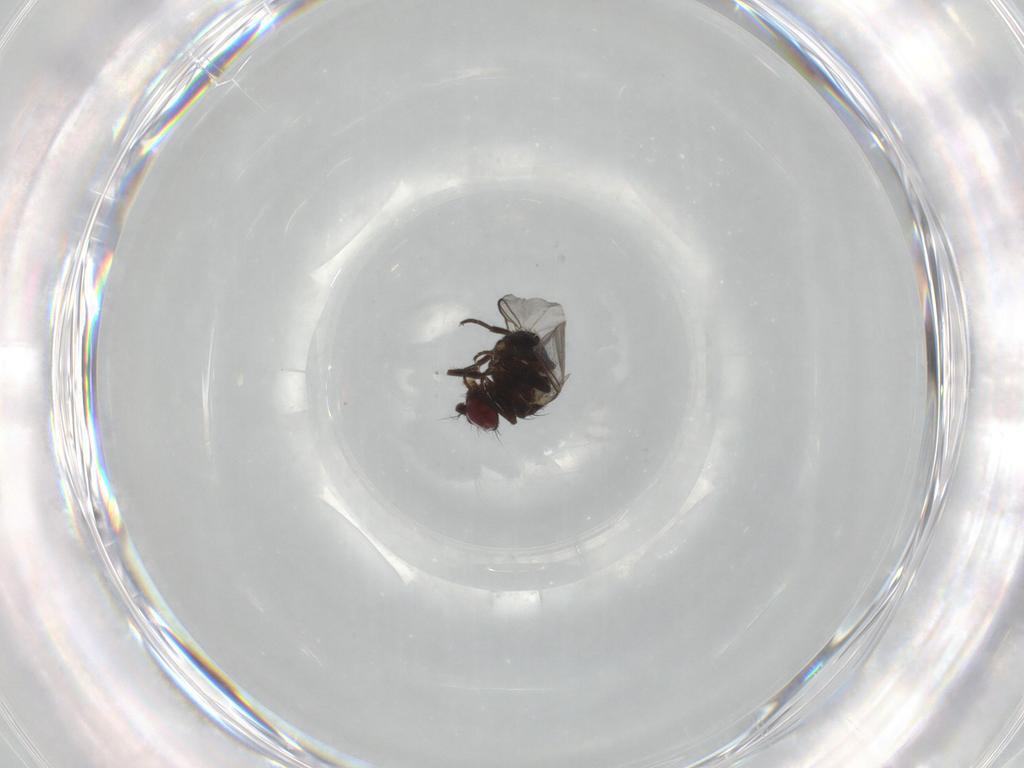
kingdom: Animalia
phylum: Arthropoda
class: Insecta
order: Diptera
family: Agromyzidae
